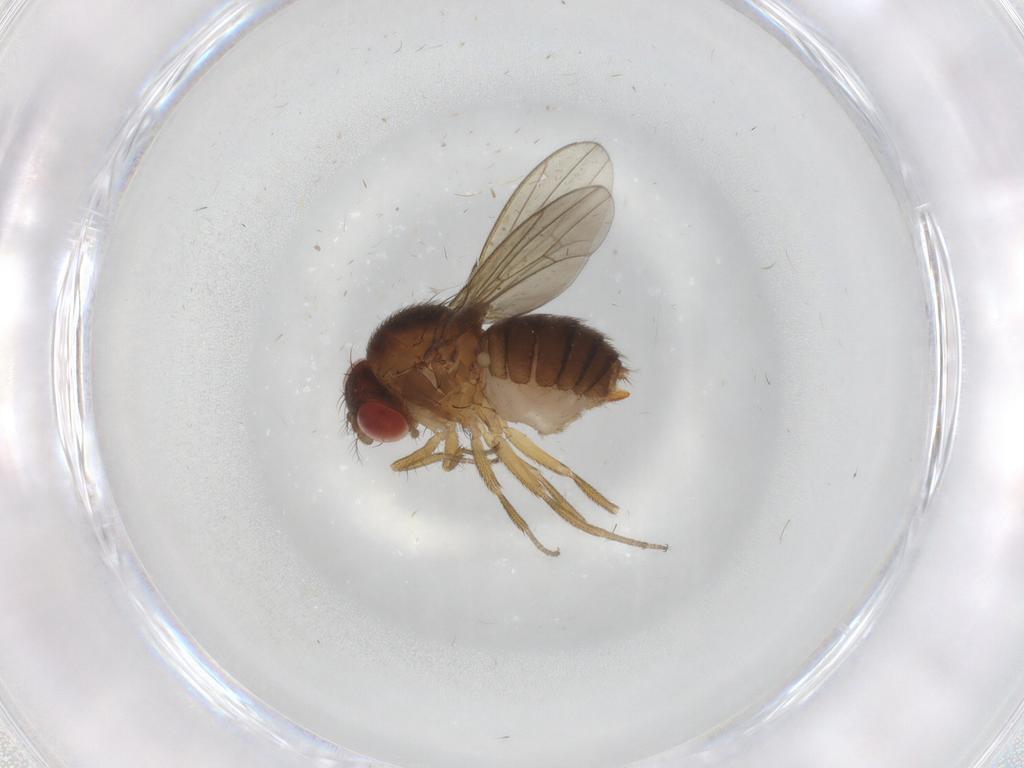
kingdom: Animalia
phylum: Arthropoda
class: Insecta
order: Diptera
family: Drosophilidae
